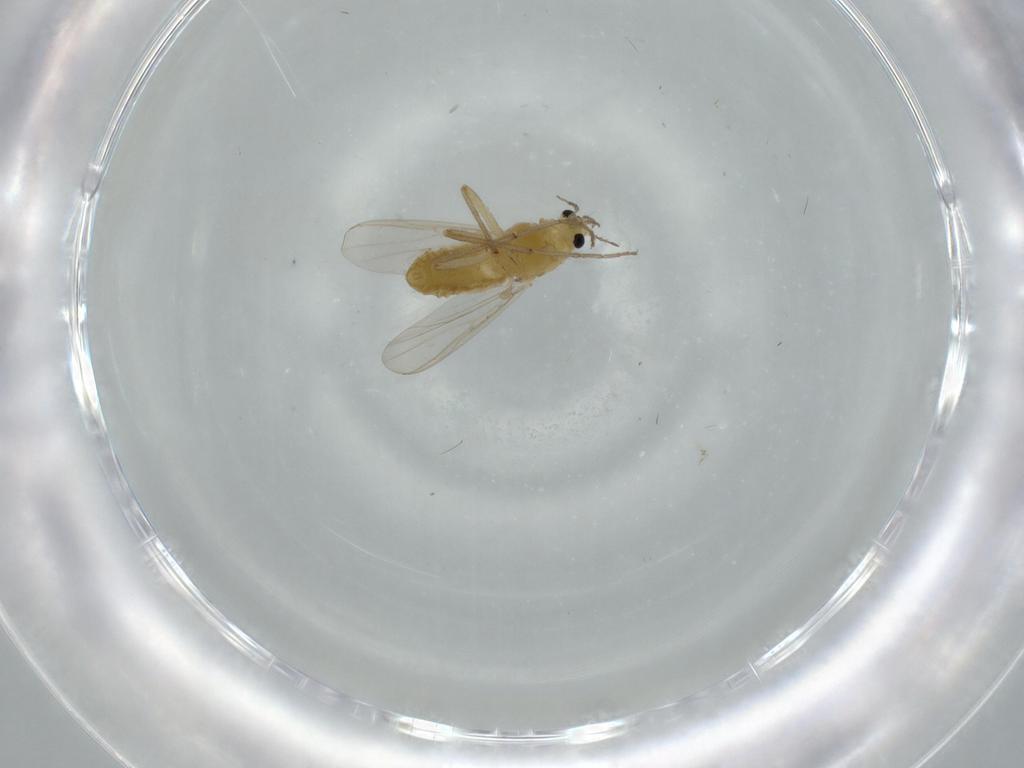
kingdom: Animalia
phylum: Arthropoda
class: Insecta
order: Diptera
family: Chironomidae
